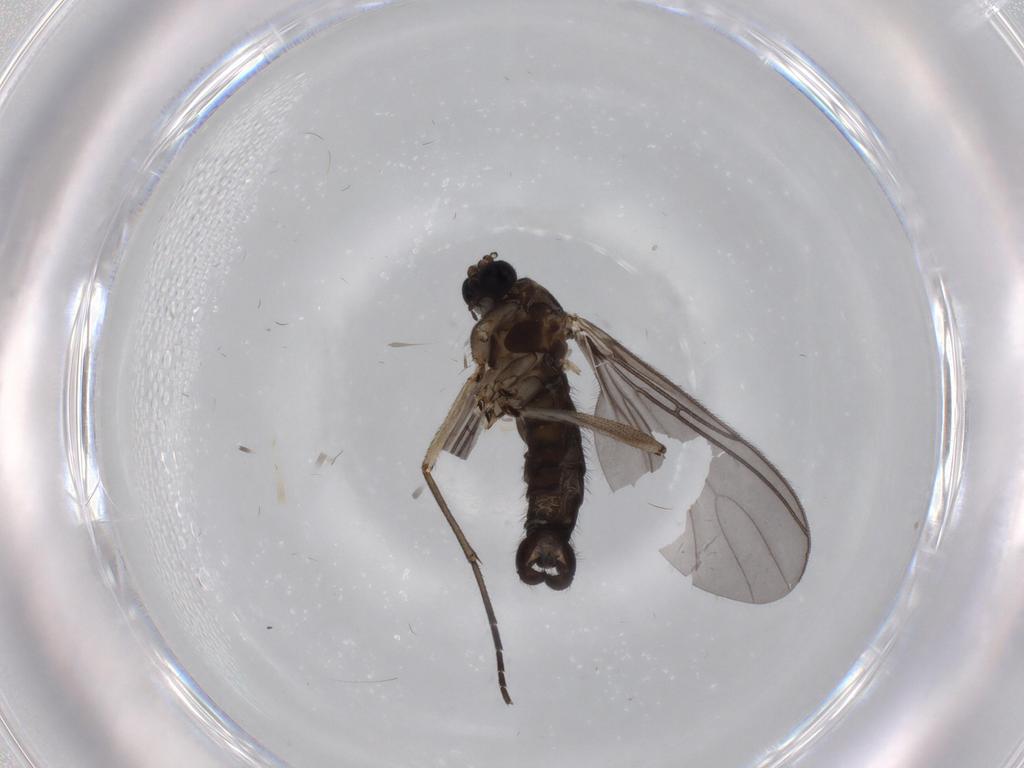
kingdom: Animalia
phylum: Arthropoda
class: Insecta
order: Diptera
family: Sciaridae
